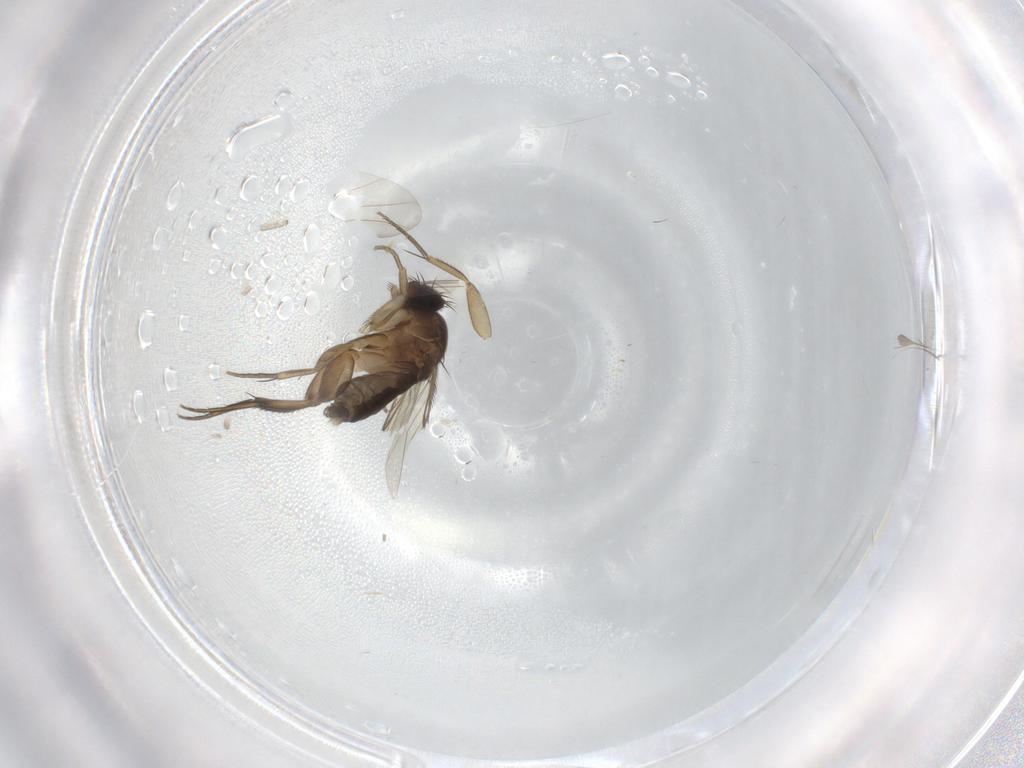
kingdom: Animalia
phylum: Arthropoda
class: Insecta
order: Diptera
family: Phoridae
